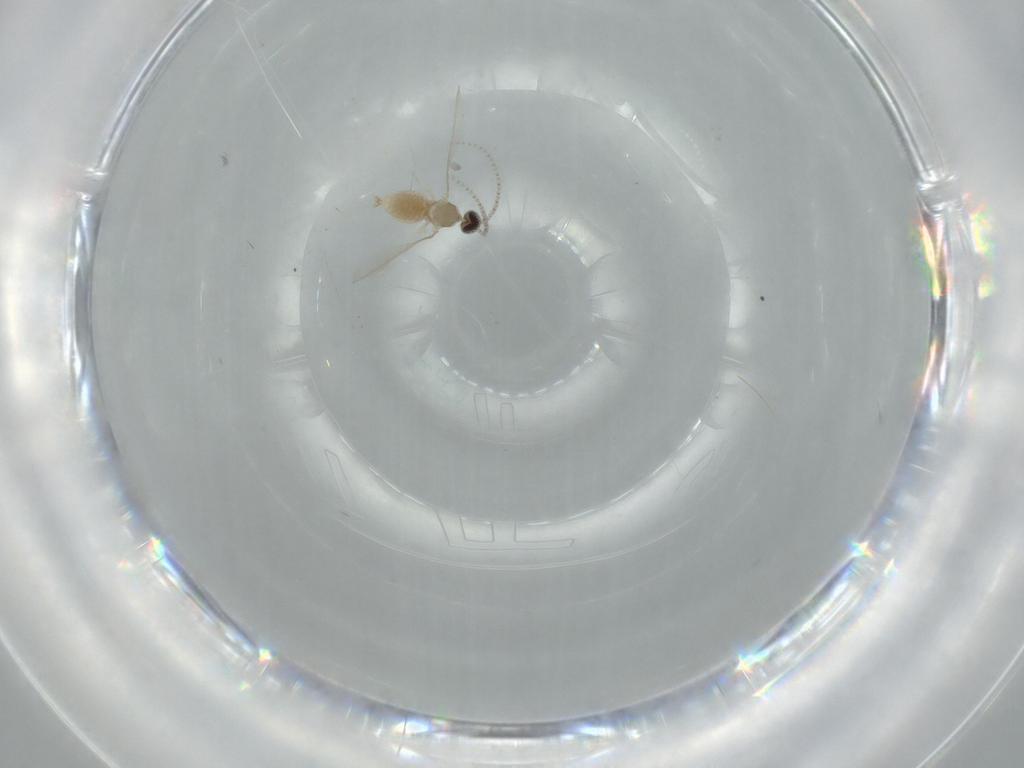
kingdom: Animalia
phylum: Arthropoda
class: Insecta
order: Diptera
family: Cecidomyiidae
